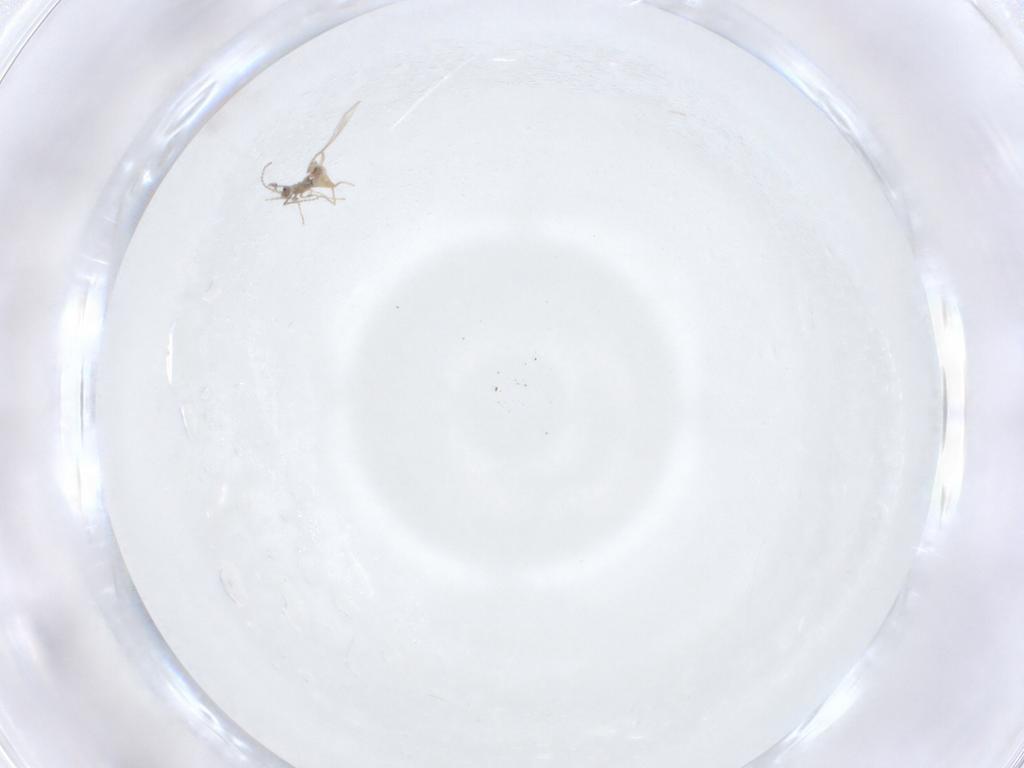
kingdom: Animalia
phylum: Arthropoda
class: Insecta
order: Diptera
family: Cecidomyiidae
